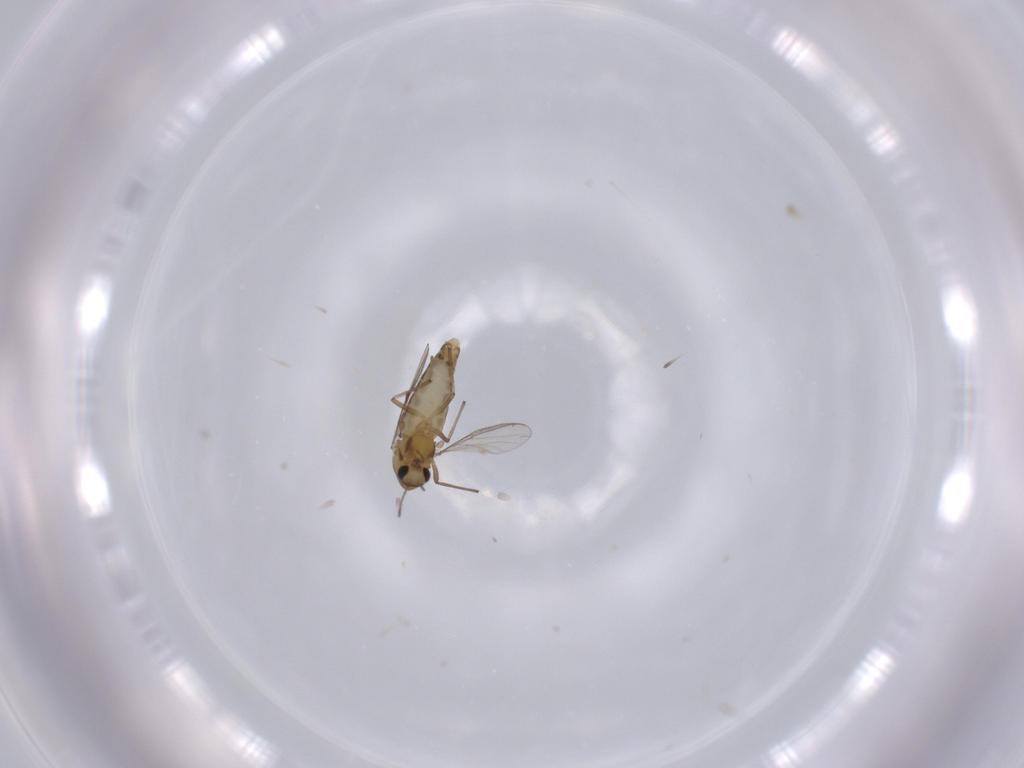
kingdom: Animalia
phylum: Arthropoda
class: Insecta
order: Diptera
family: Chironomidae
